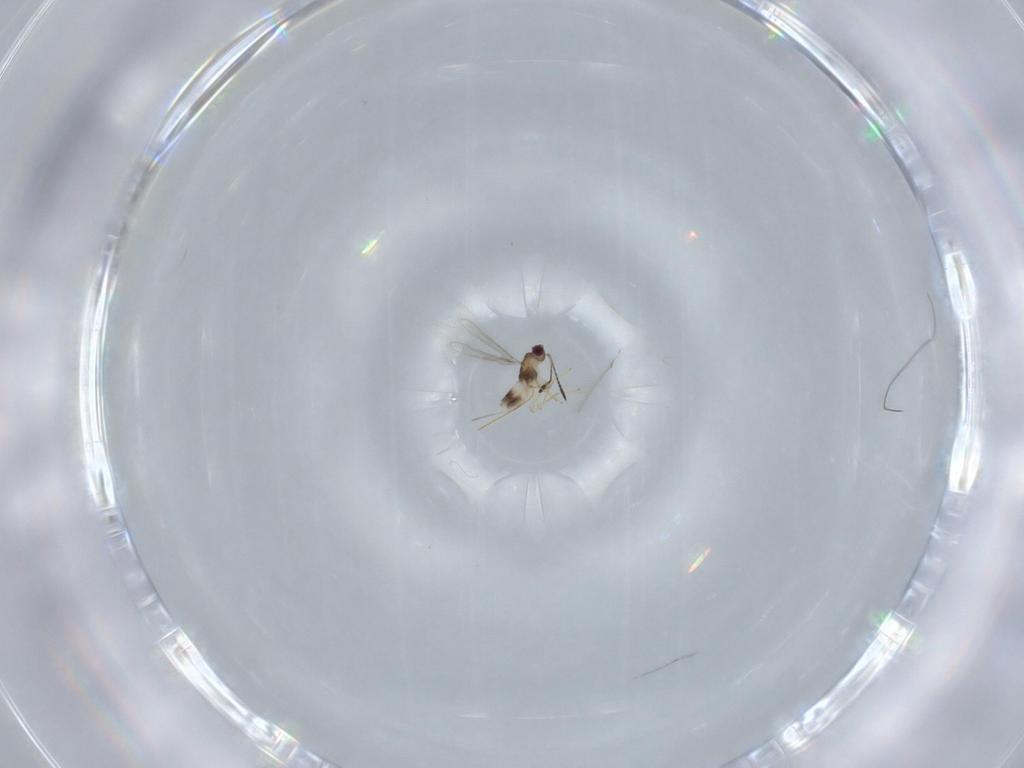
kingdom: Animalia
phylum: Arthropoda
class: Insecta
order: Hymenoptera
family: Mymaridae
